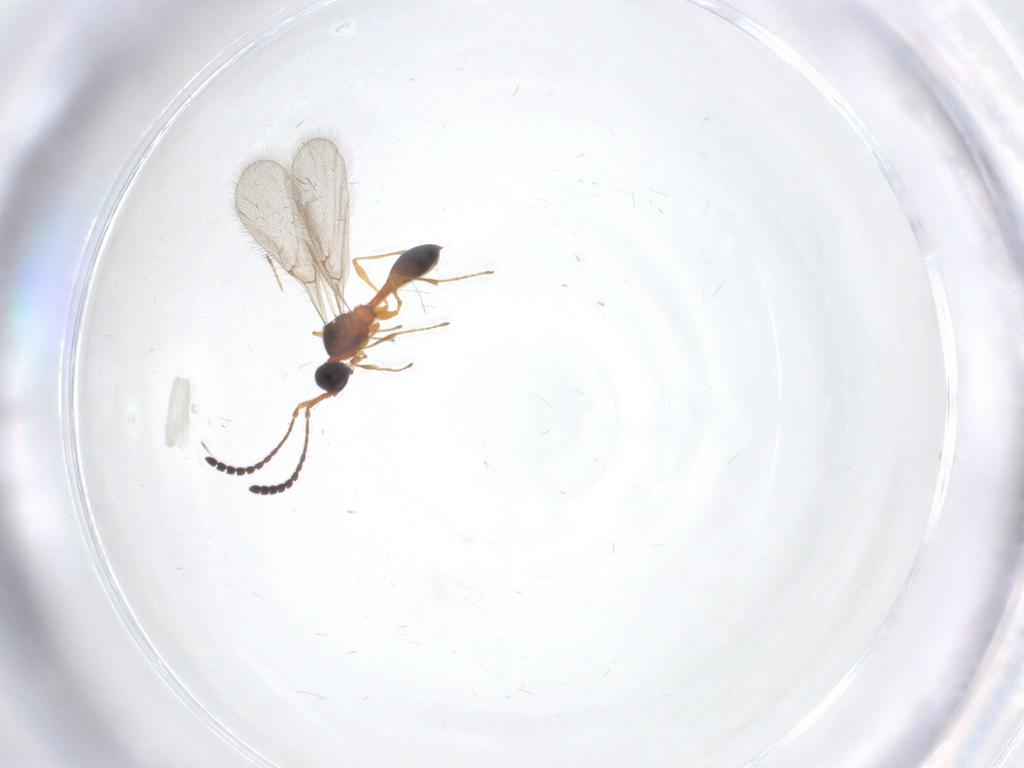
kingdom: Animalia
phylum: Arthropoda
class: Insecta
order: Hymenoptera
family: Diapriidae
